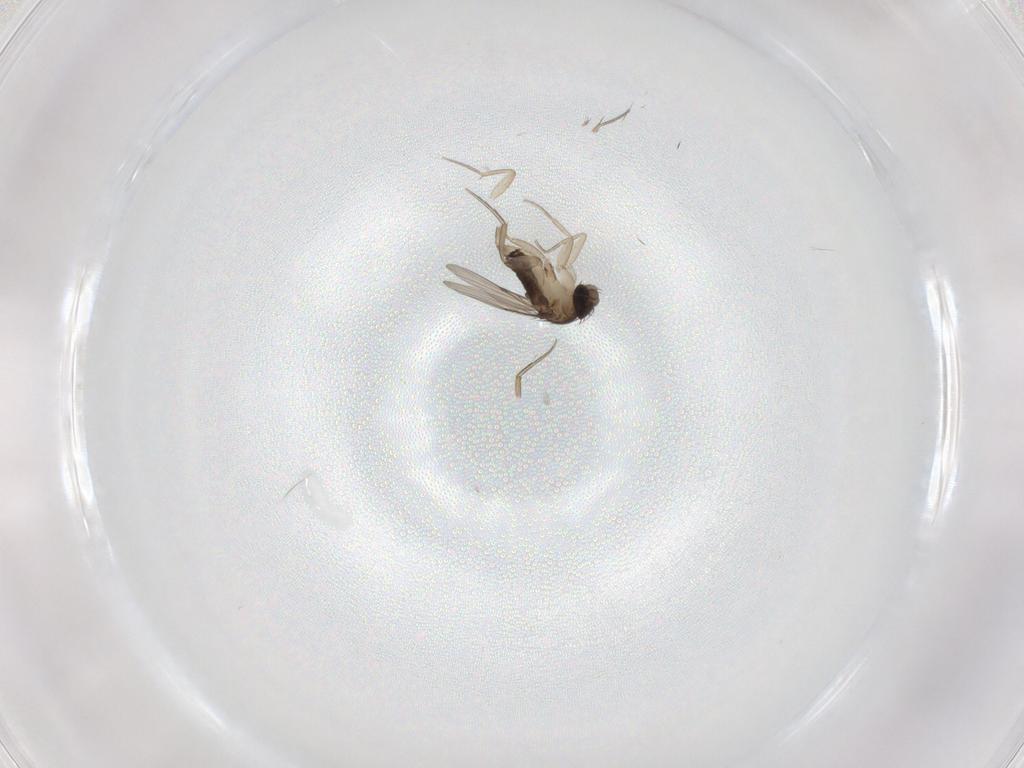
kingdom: Animalia
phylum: Arthropoda
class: Insecta
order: Diptera
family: Phoridae
